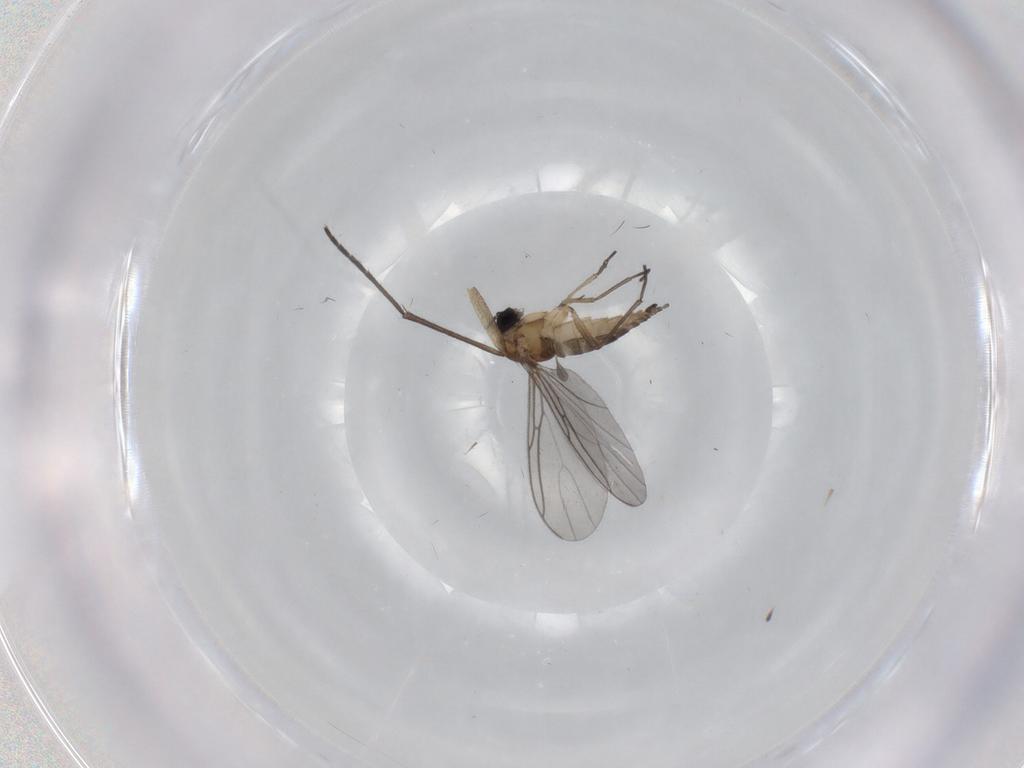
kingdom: Animalia
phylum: Arthropoda
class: Insecta
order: Diptera
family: Sciaridae
